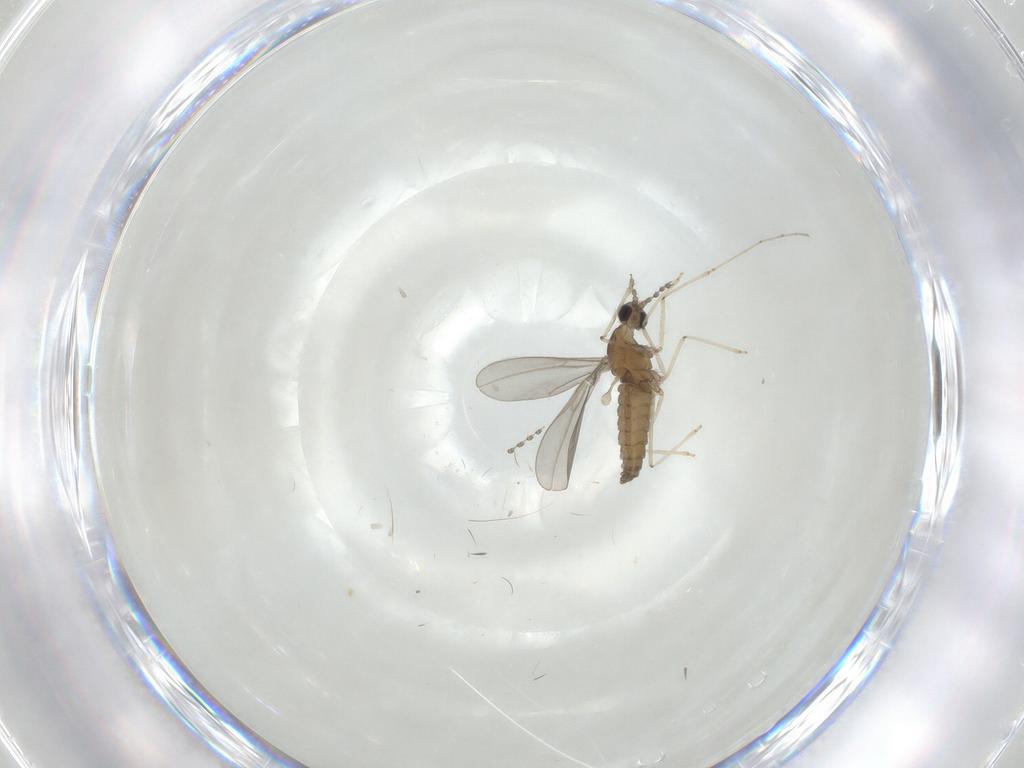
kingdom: Animalia
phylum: Arthropoda
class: Insecta
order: Diptera
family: Cecidomyiidae
